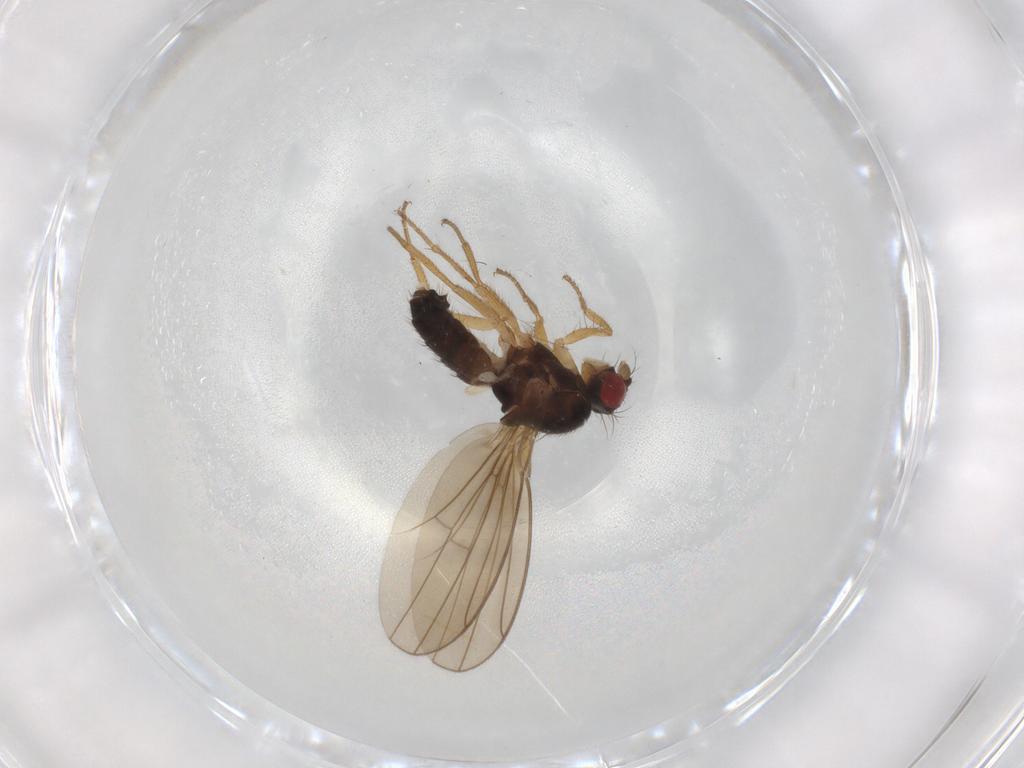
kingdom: Animalia
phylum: Arthropoda
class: Insecta
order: Diptera
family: Drosophilidae
